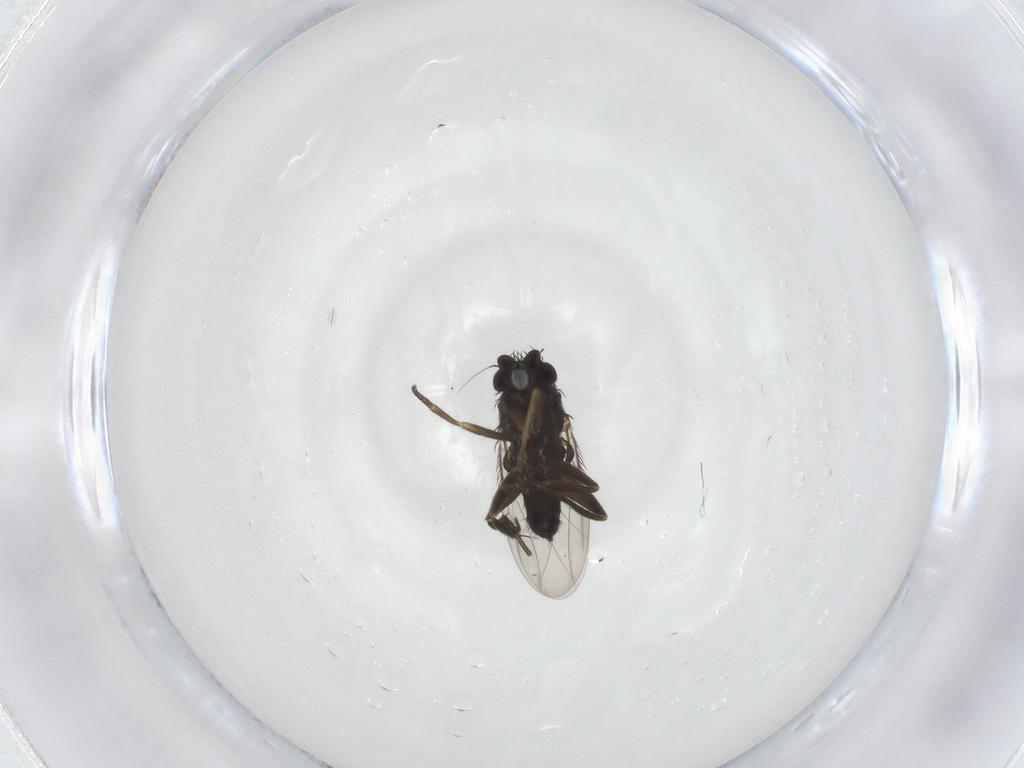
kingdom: Animalia
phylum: Arthropoda
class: Insecta
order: Diptera
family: Phoridae
